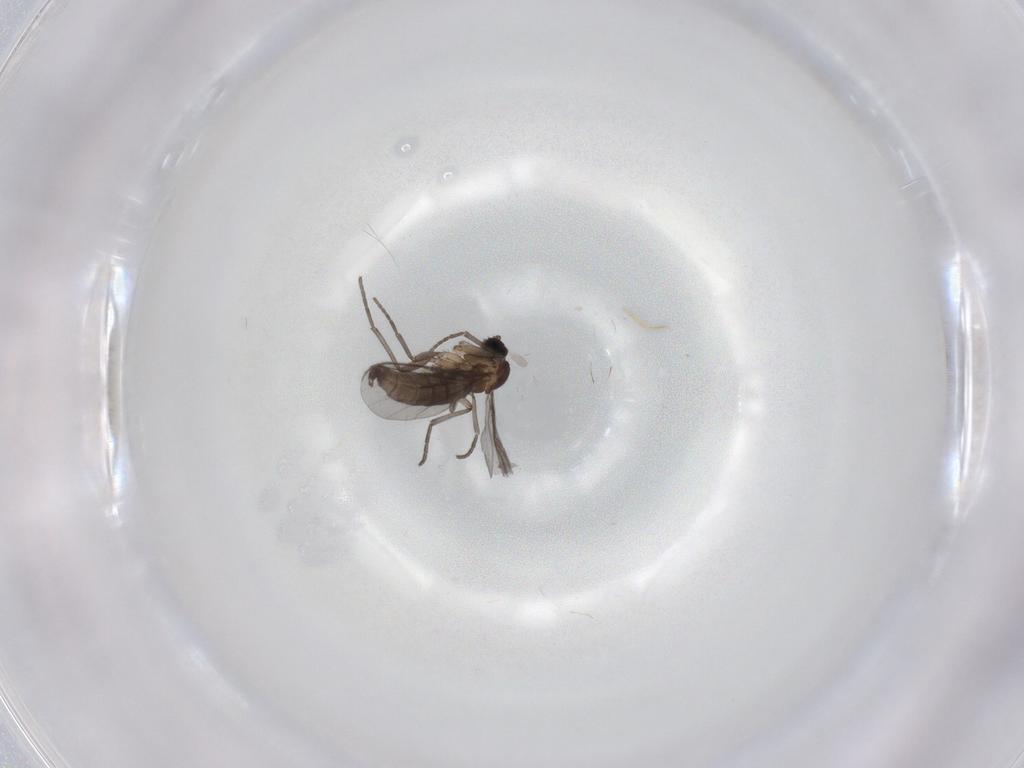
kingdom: Animalia
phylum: Arthropoda
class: Insecta
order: Diptera
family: Sciaridae
